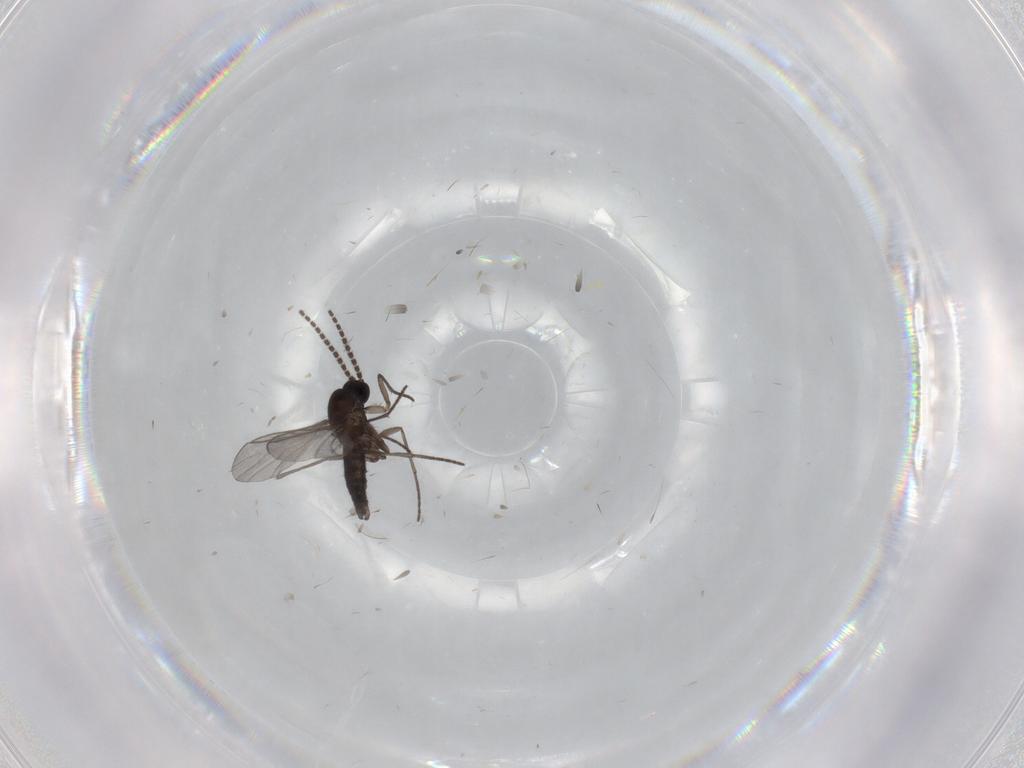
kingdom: Animalia
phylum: Arthropoda
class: Insecta
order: Diptera
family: Cecidomyiidae
